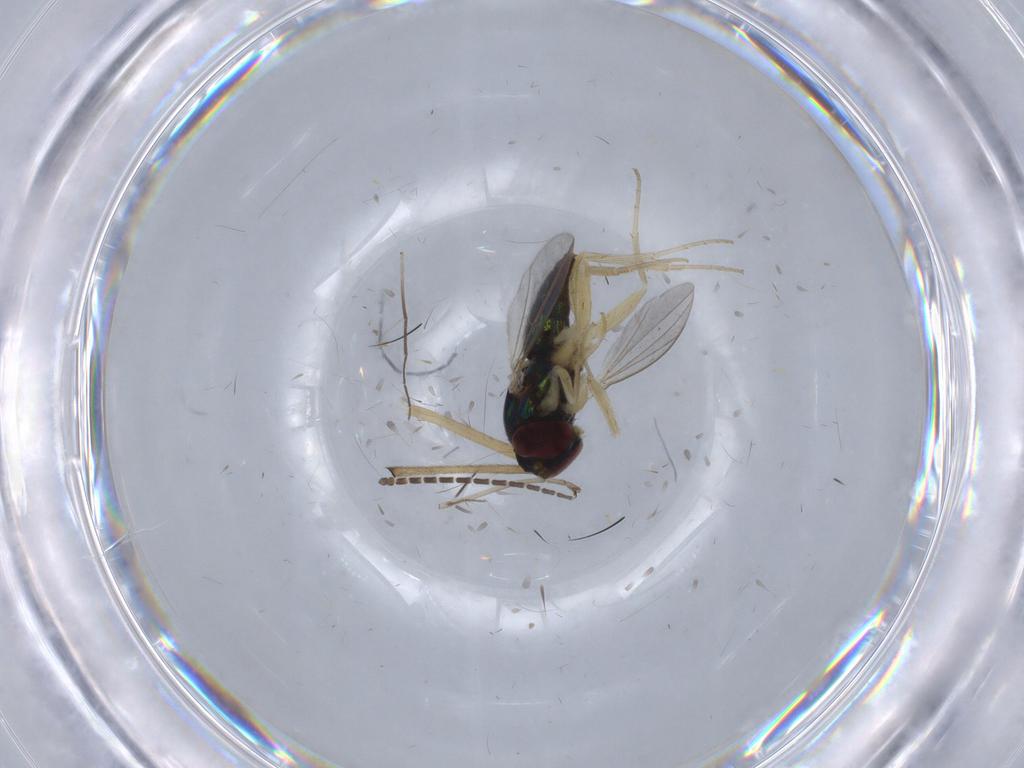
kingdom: Animalia
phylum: Arthropoda
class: Insecta
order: Diptera
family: Dolichopodidae
